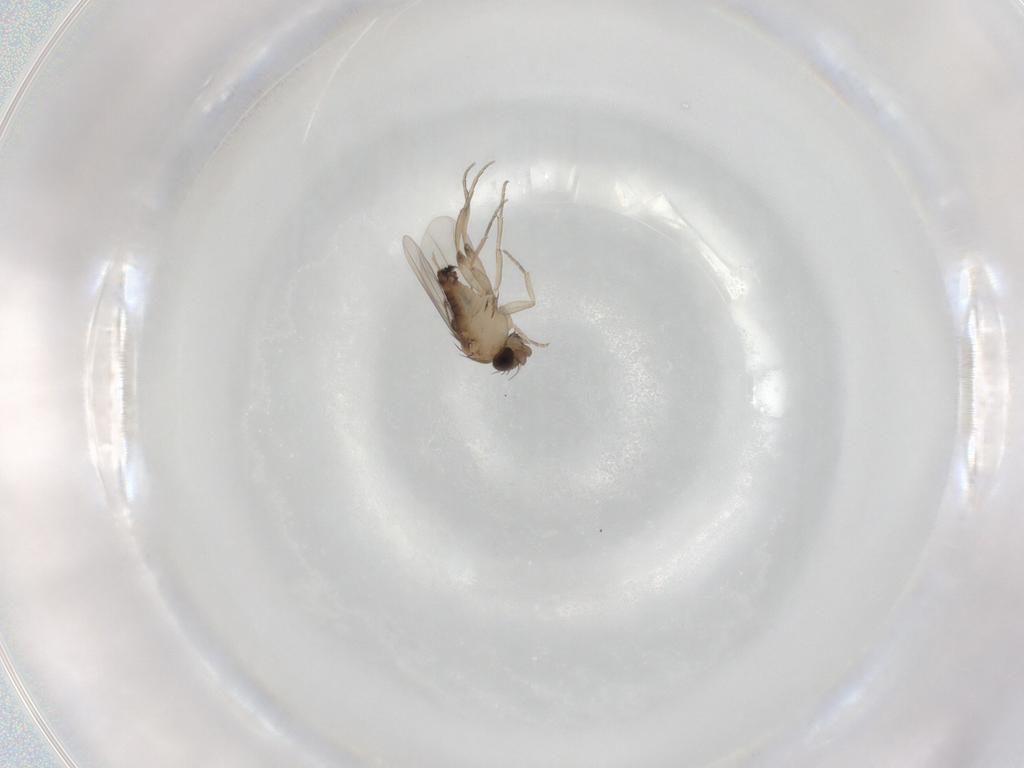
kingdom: Animalia
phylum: Arthropoda
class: Insecta
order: Diptera
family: Phoridae
